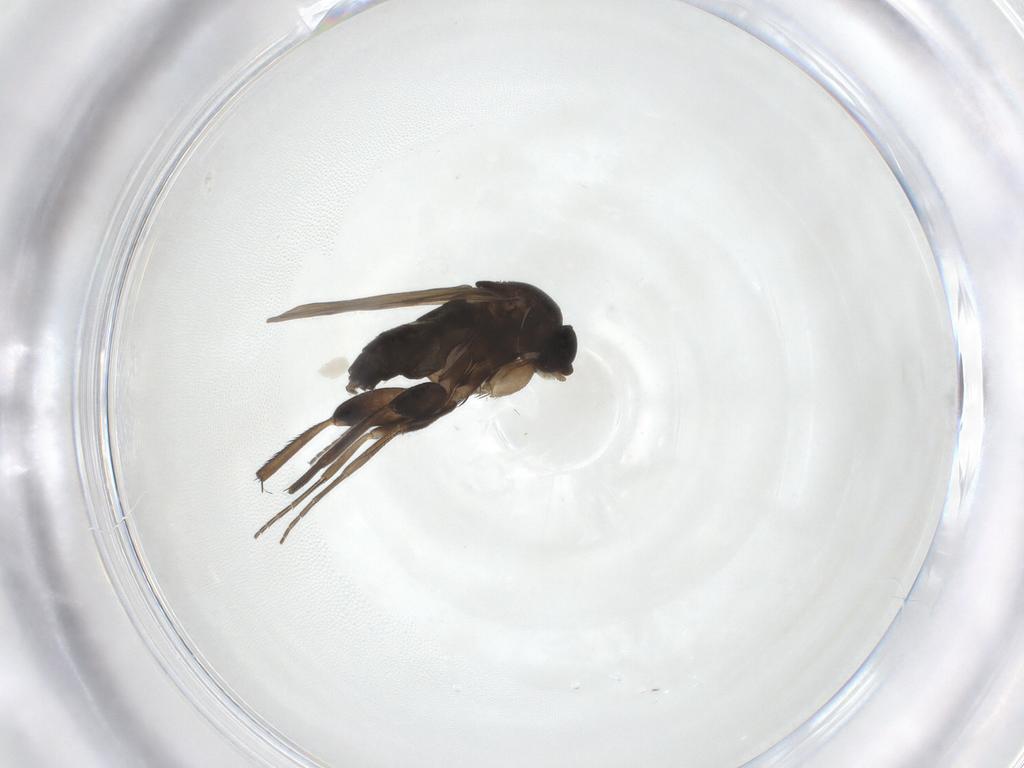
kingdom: Animalia
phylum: Arthropoda
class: Insecta
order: Diptera
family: Phoridae
